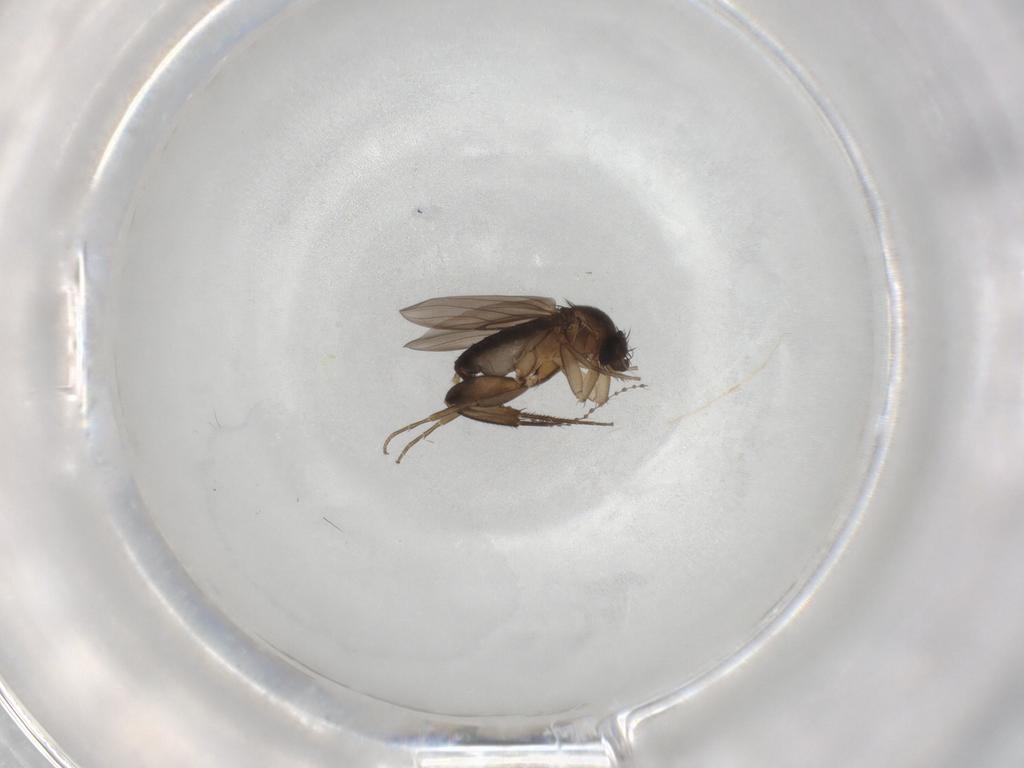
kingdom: Animalia
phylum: Arthropoda
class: Insecta
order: Diptera
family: Phoridae
